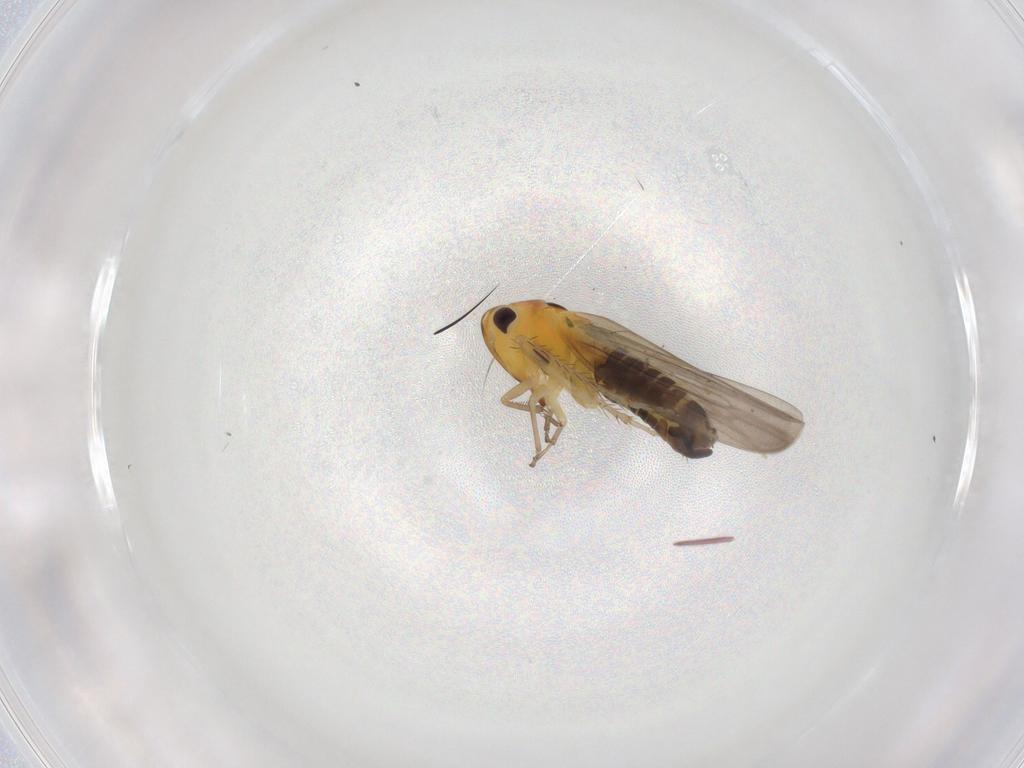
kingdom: Animalia
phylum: Arthropoda
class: Insecta
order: Hemiptera
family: Cicadellidae
